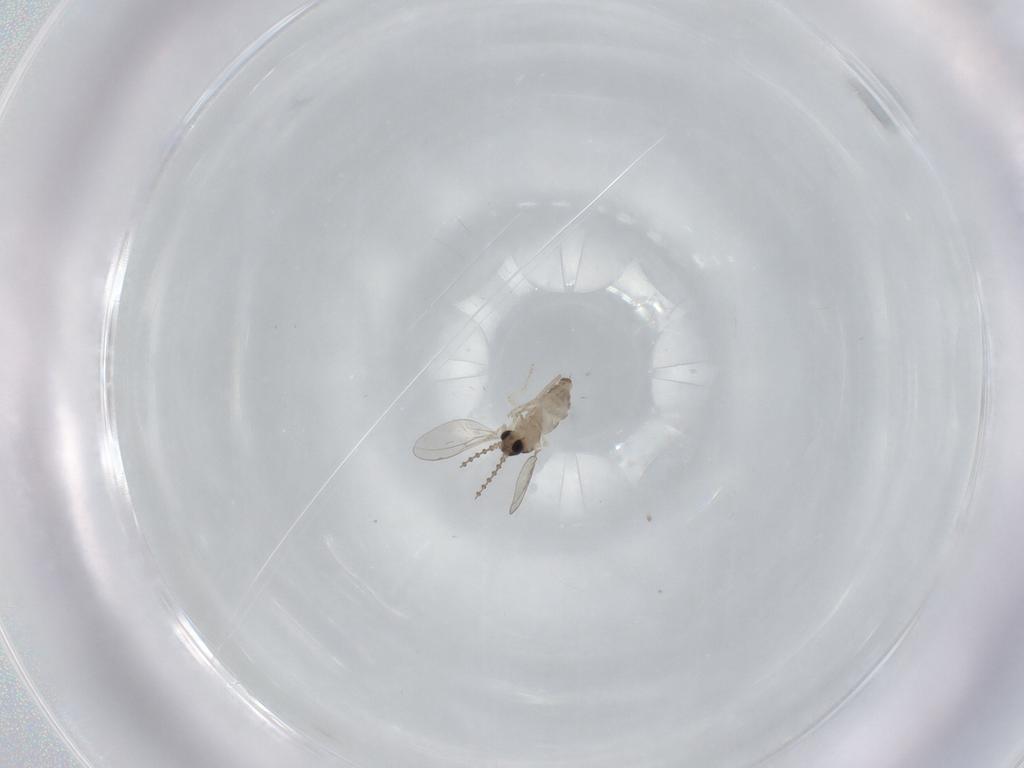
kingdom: Animalia
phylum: Arthropoda
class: Insecta
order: Diptera
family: Cecidomyiidae
